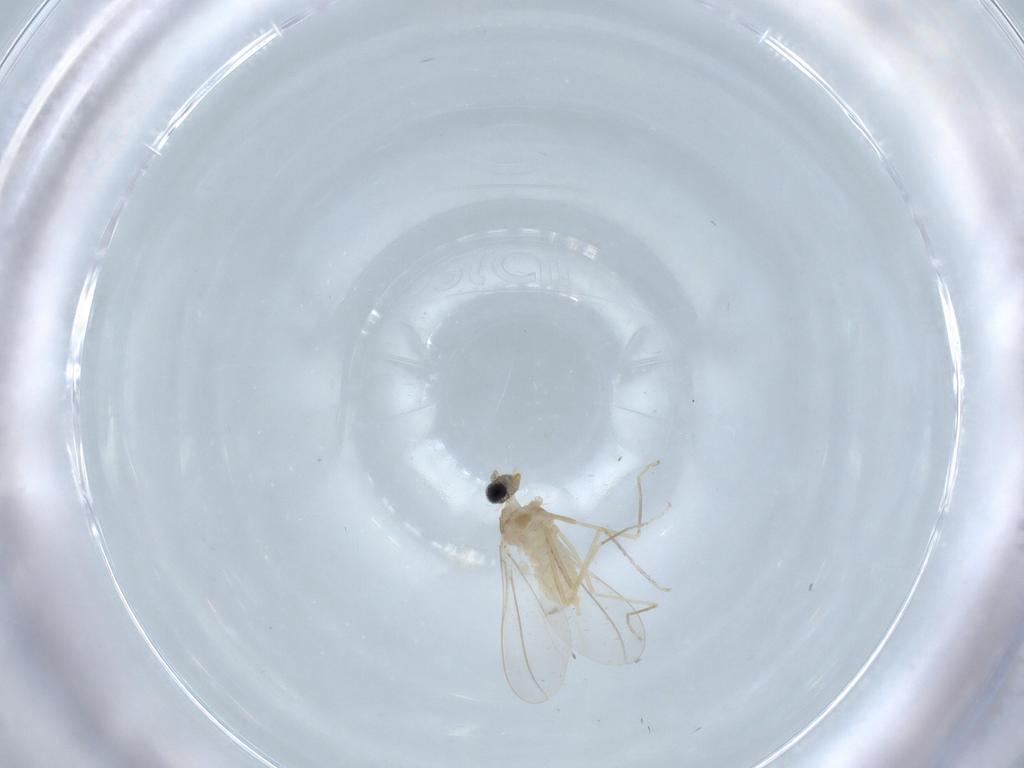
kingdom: Animalia
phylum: Arthropoda
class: Insecta
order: Diptera
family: Cecidomyiidae
